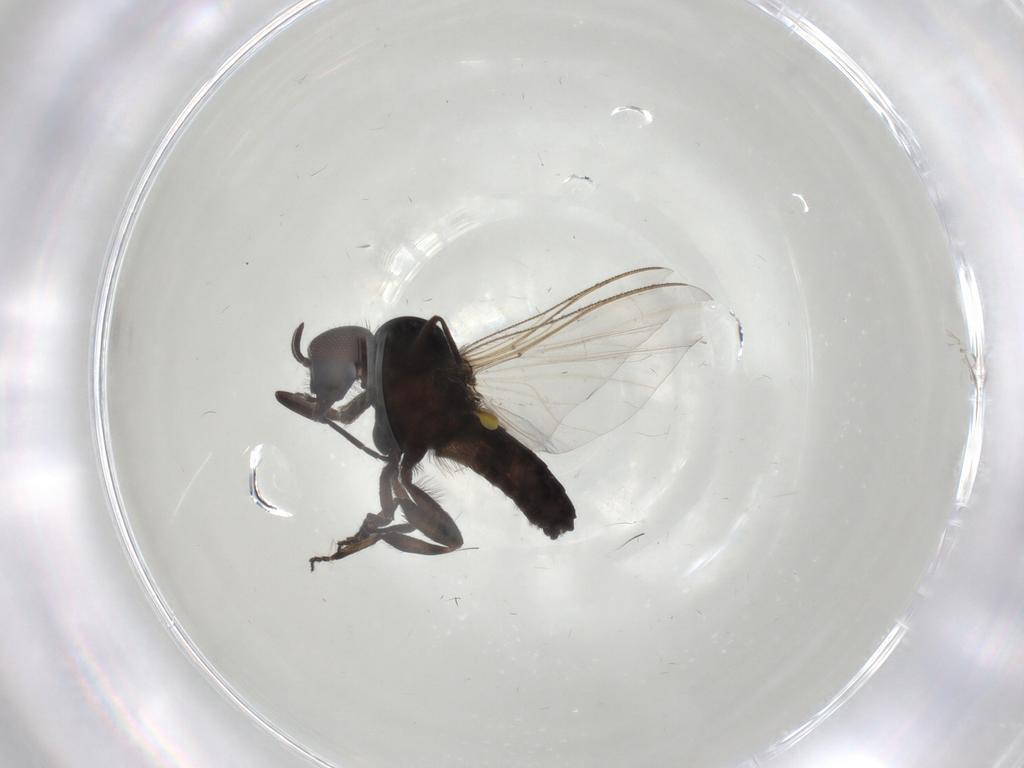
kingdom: Animalia
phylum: Arthropoda
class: Insecta
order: Diptera
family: Simuliidae
